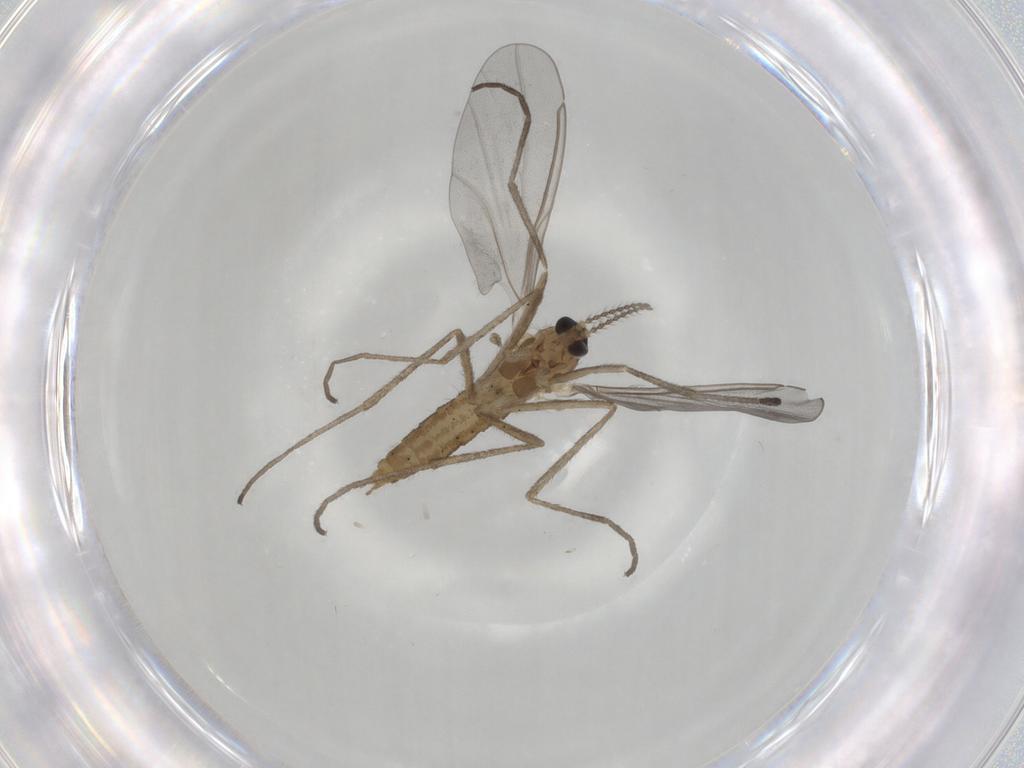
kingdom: Animalia
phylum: Arthropoda
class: Insecta
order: Diptera
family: Cecidomyiidae
